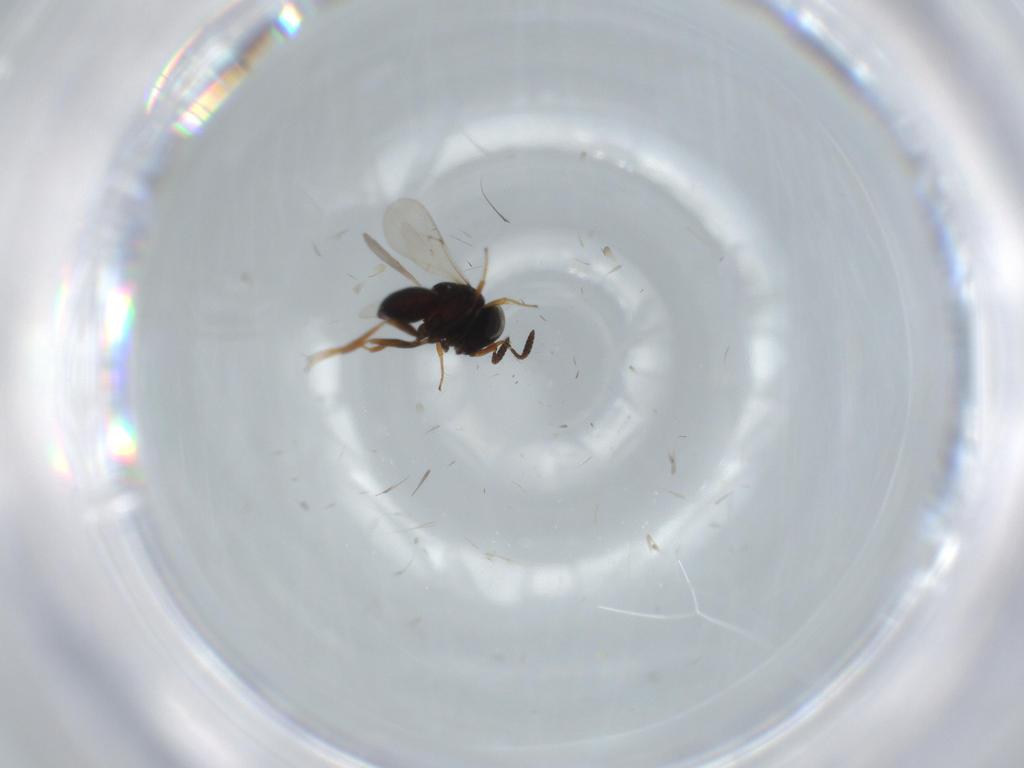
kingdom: Animalia
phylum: Arthropoda
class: Insecta
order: Hymenoptera
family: Scelionidae
